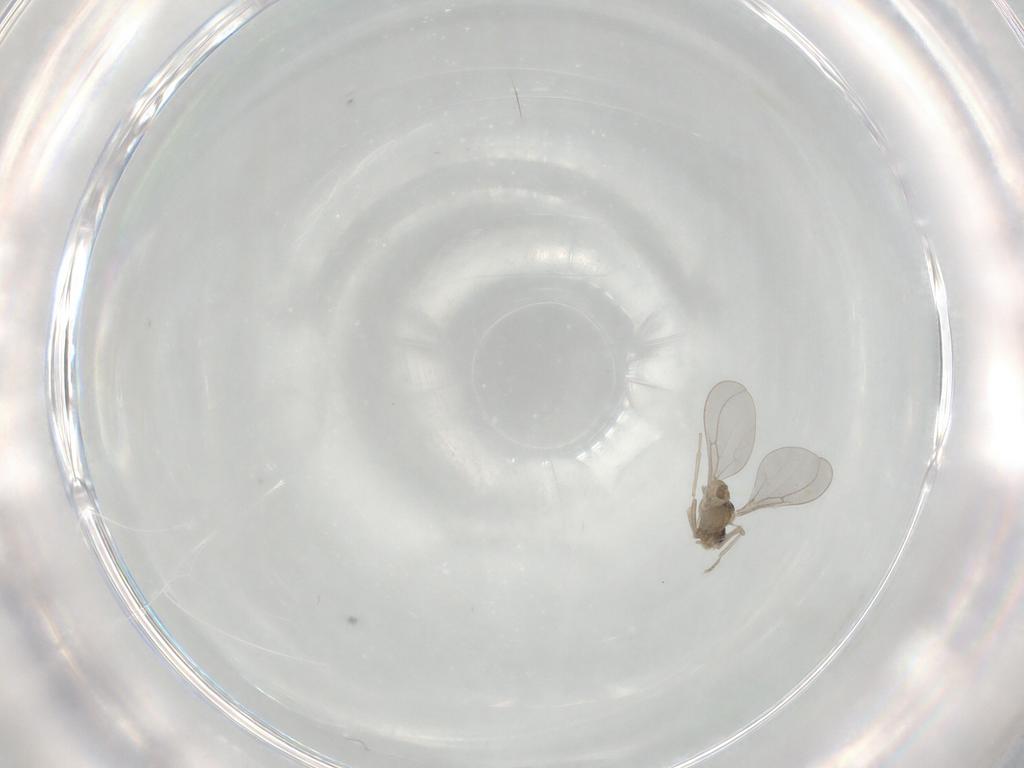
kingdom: Animalia
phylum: Arthropoda
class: Insecta
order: Diptera
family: Cecidomyiidae
